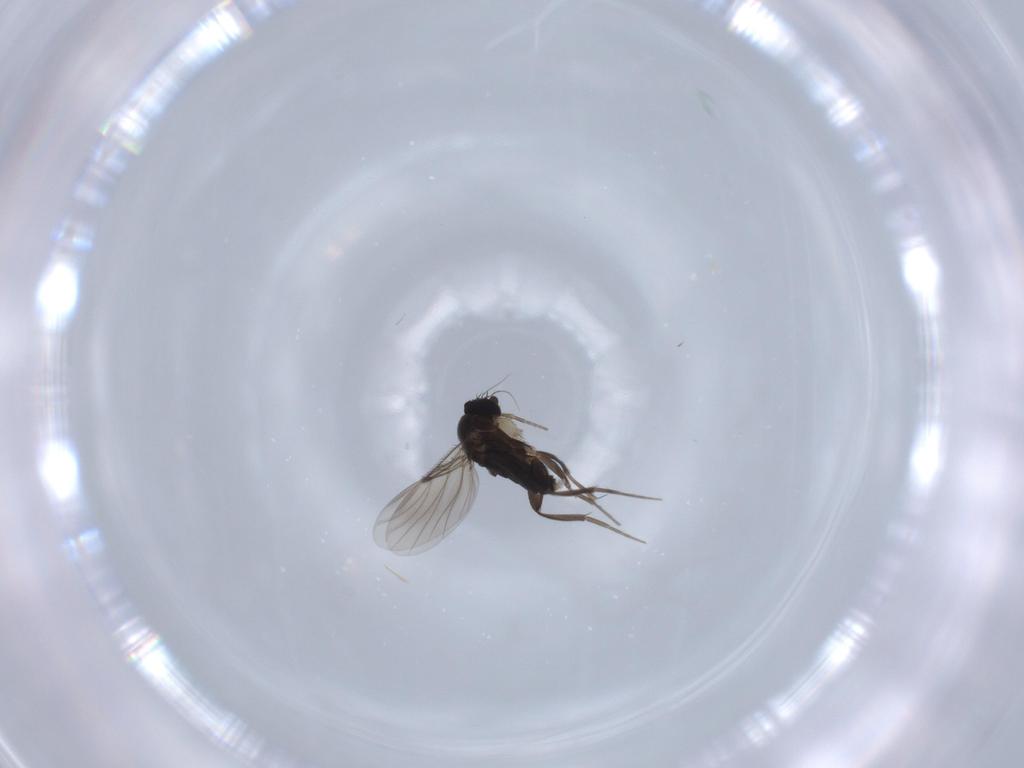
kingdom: Animalia
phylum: Arthropoda
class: Insecta
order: Diptera
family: Phoridae
